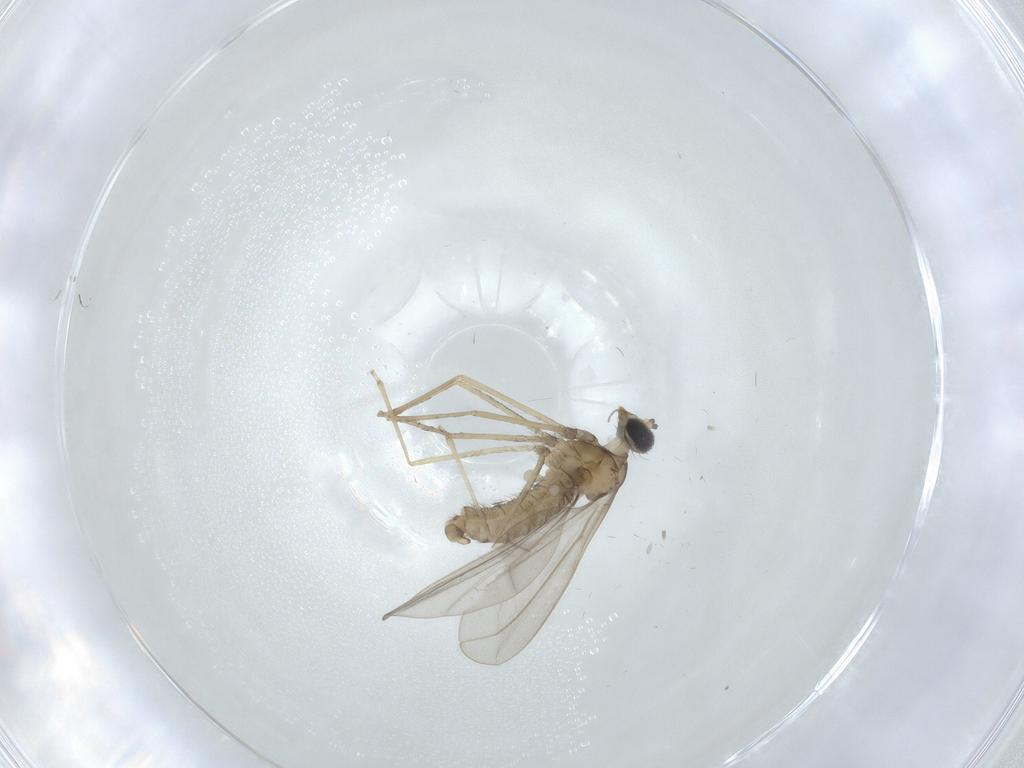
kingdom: Animalia
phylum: Arthropoda
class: Insecta
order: Diptera
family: Cecidomyiidae
